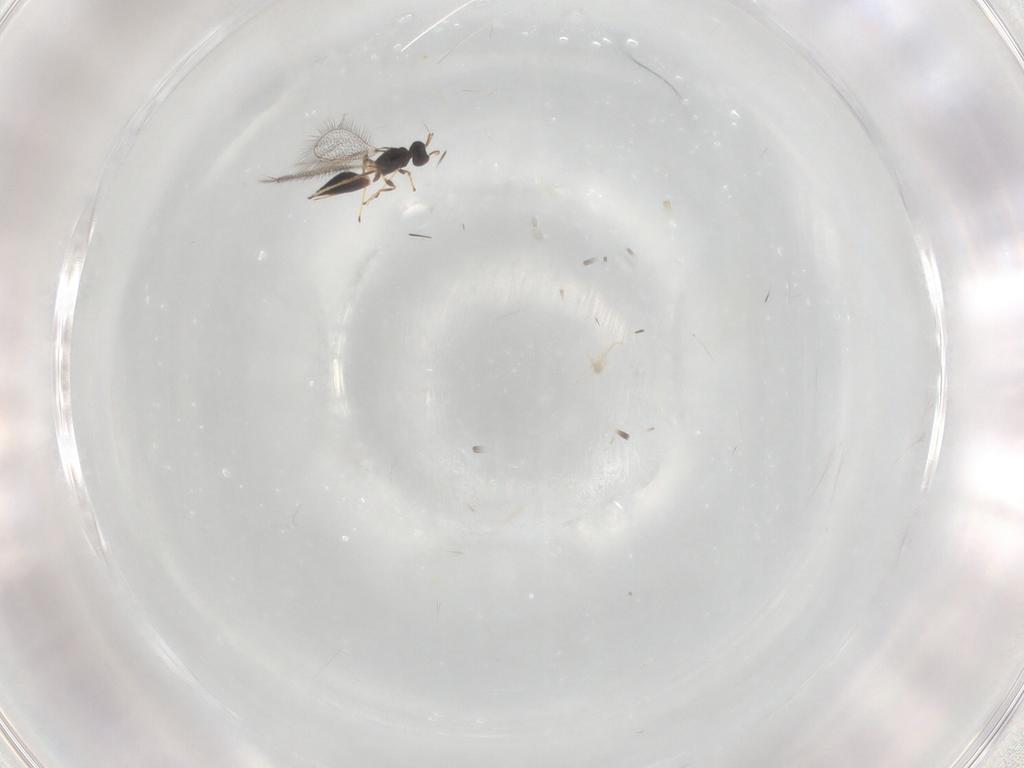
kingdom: Animalia
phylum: Arthropoda
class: Insecta
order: Hymenoptera
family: Mymaridae
